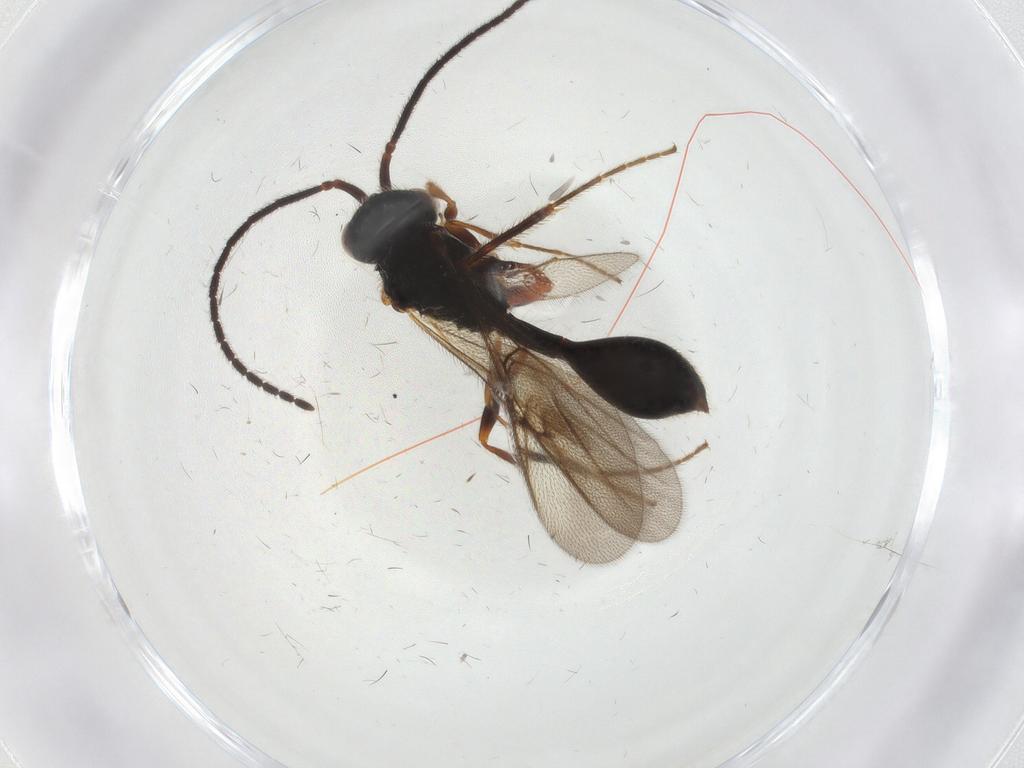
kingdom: Animalia
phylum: Arthropoda
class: Insecta
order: Hymenoptera
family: Diapriidae
